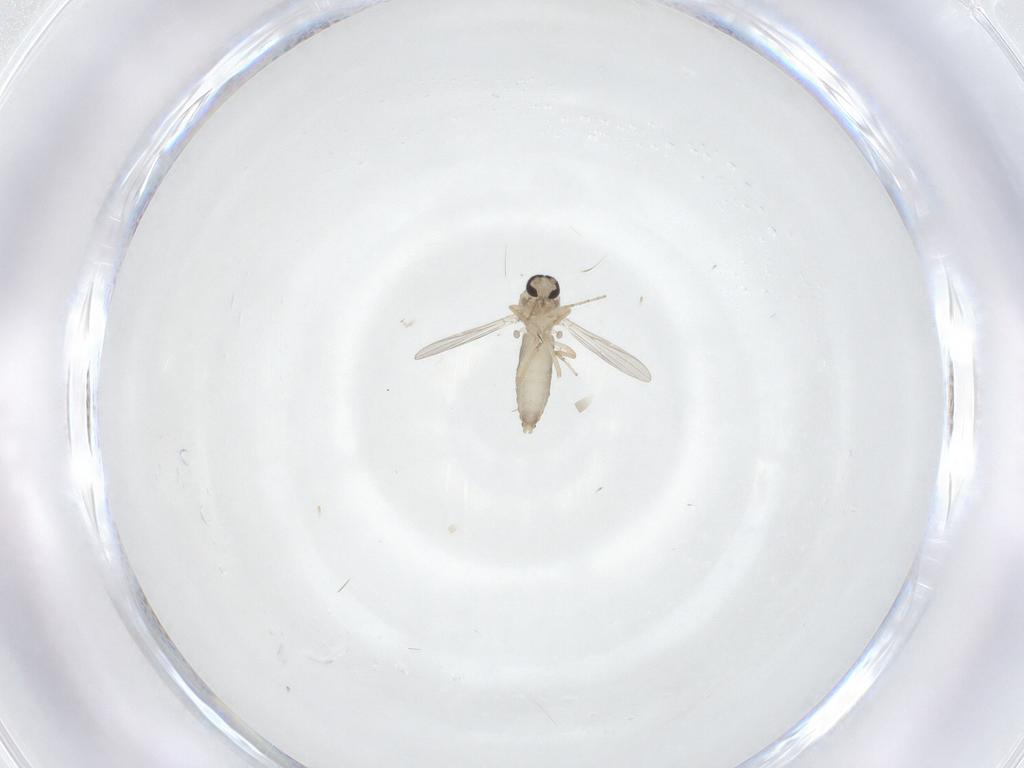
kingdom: Animalia
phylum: Arthropoda
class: Insecta
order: Diptera
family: Ceratopogonidae
